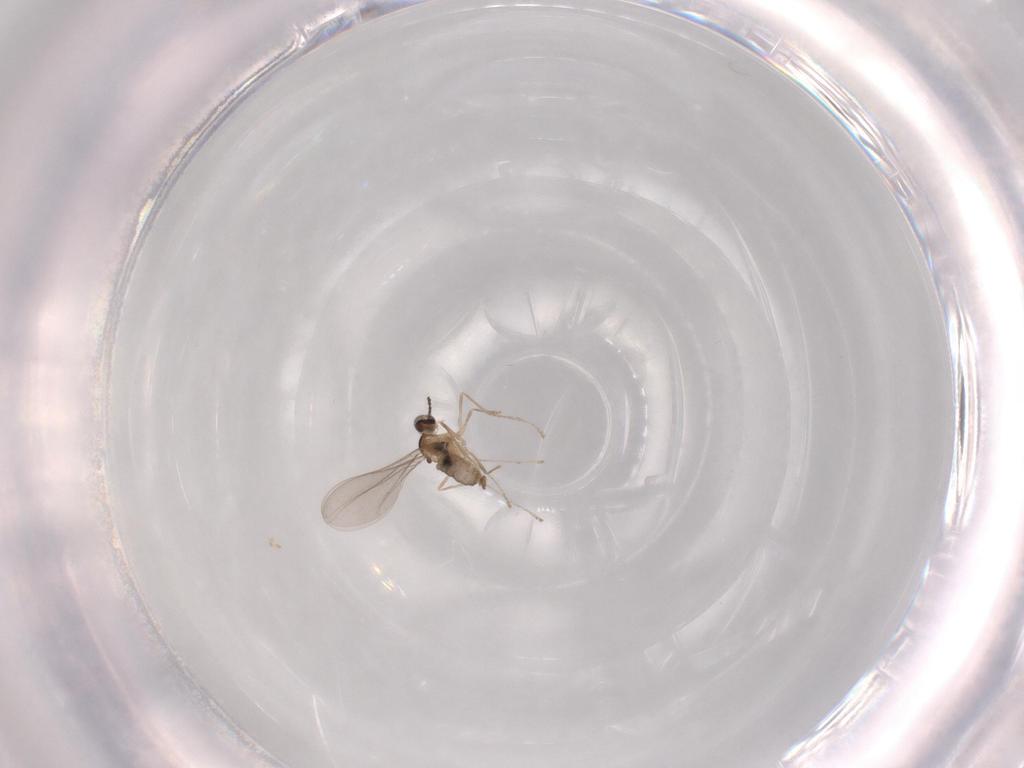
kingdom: Animalia
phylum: Arthropoda
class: Insecta
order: Diptera
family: Cecidomyiidae
